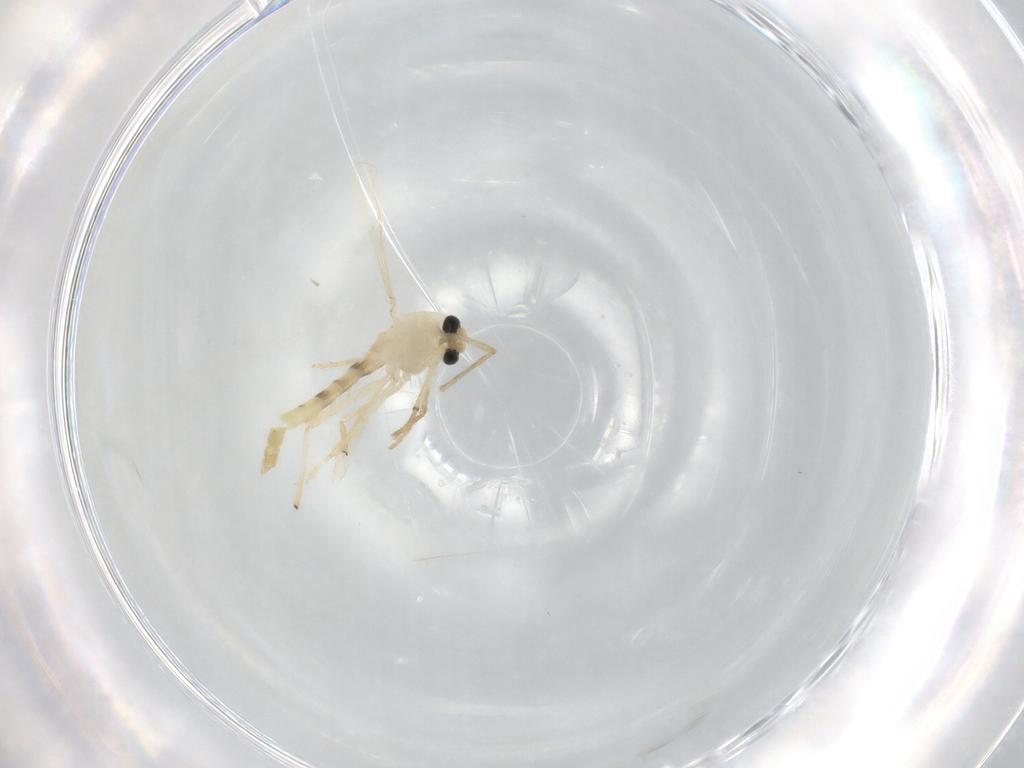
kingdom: Animalia
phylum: Arthropoda
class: Insecta
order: Diptera
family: Chironomidae
